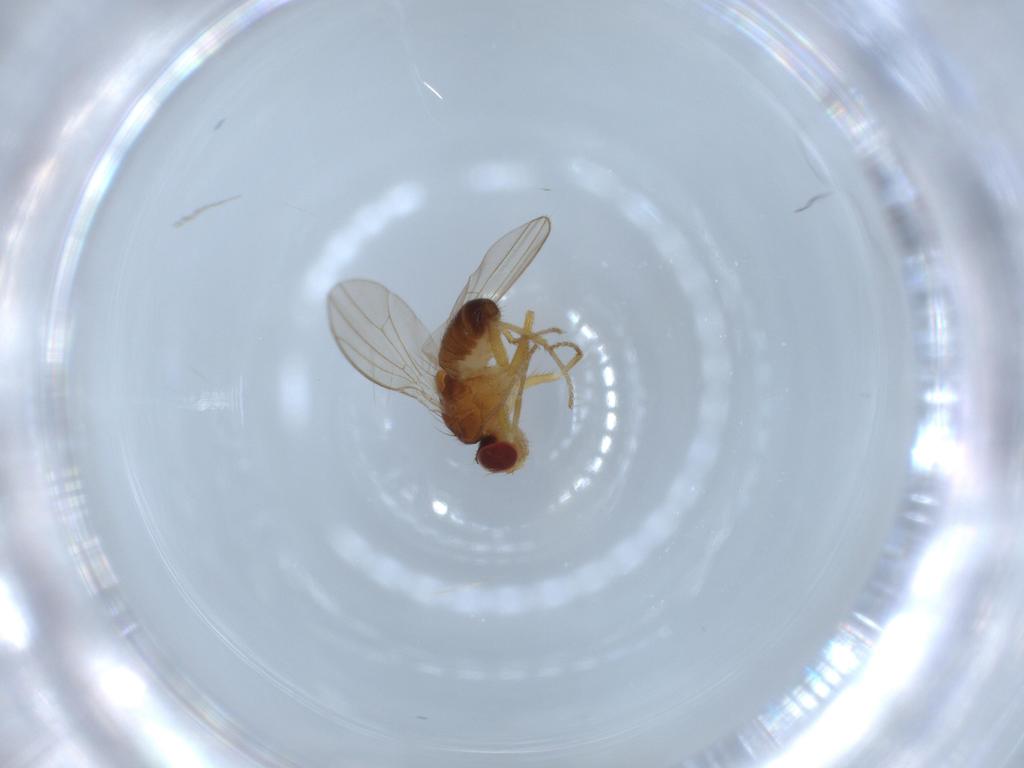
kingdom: Animalia
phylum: Arthropoda
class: Insecta
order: Diptera
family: Drosophilidae
